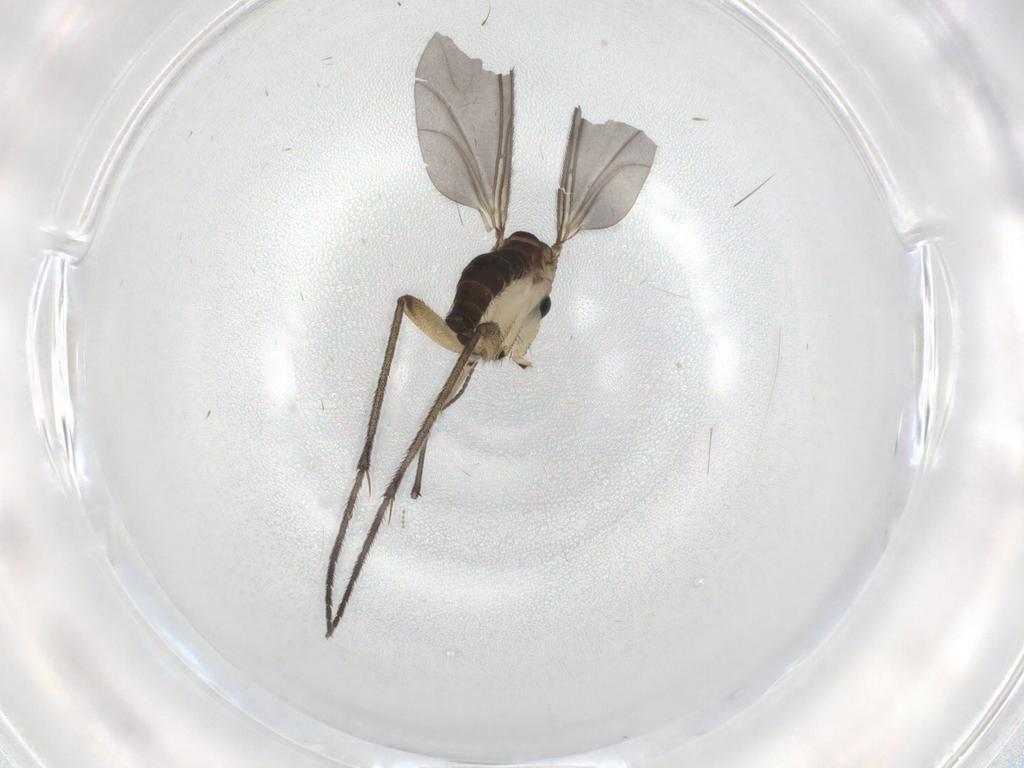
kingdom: Animalia
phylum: Arthropoda
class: Insecta
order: Diptera
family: Sciaridae
